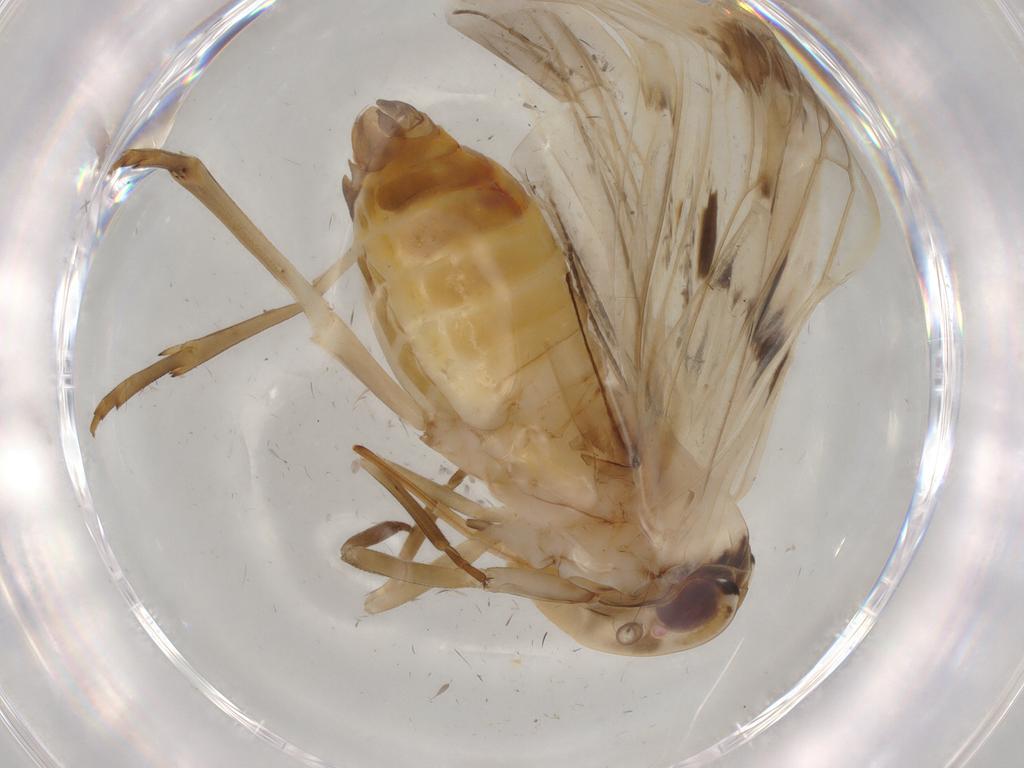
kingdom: Animalia
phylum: Arthropoda
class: Insecta
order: Hemiptera
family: Achilidae
